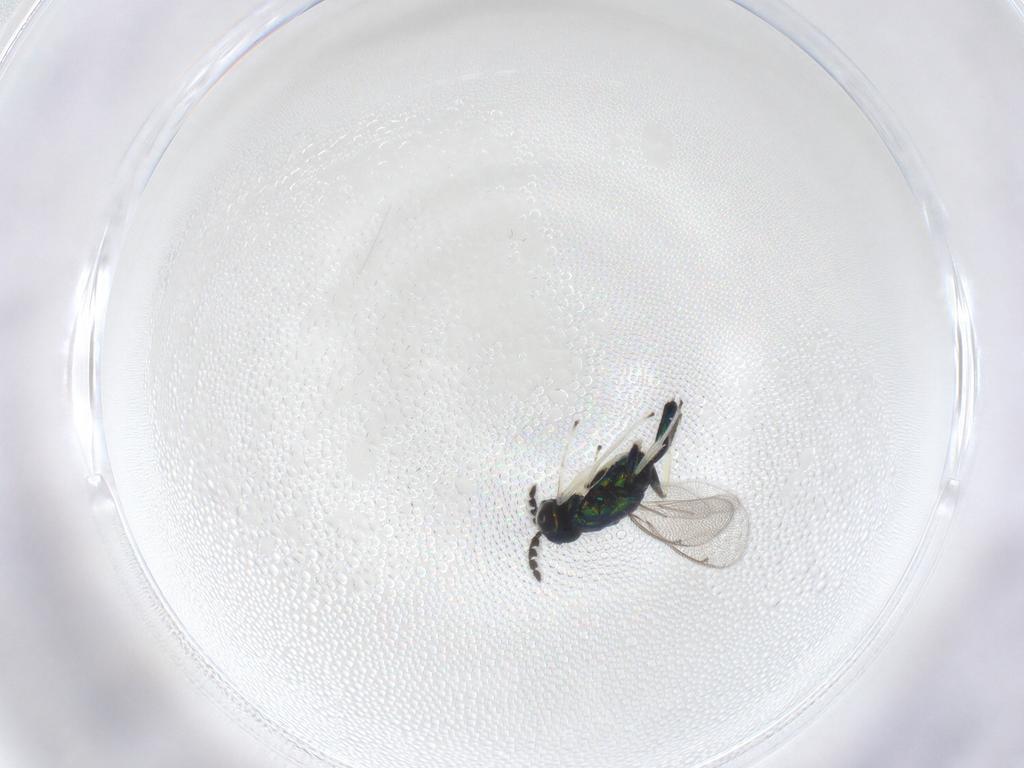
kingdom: Animalia
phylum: Arthropoda
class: Insecta
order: Hymenoptera
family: Eulophidae
